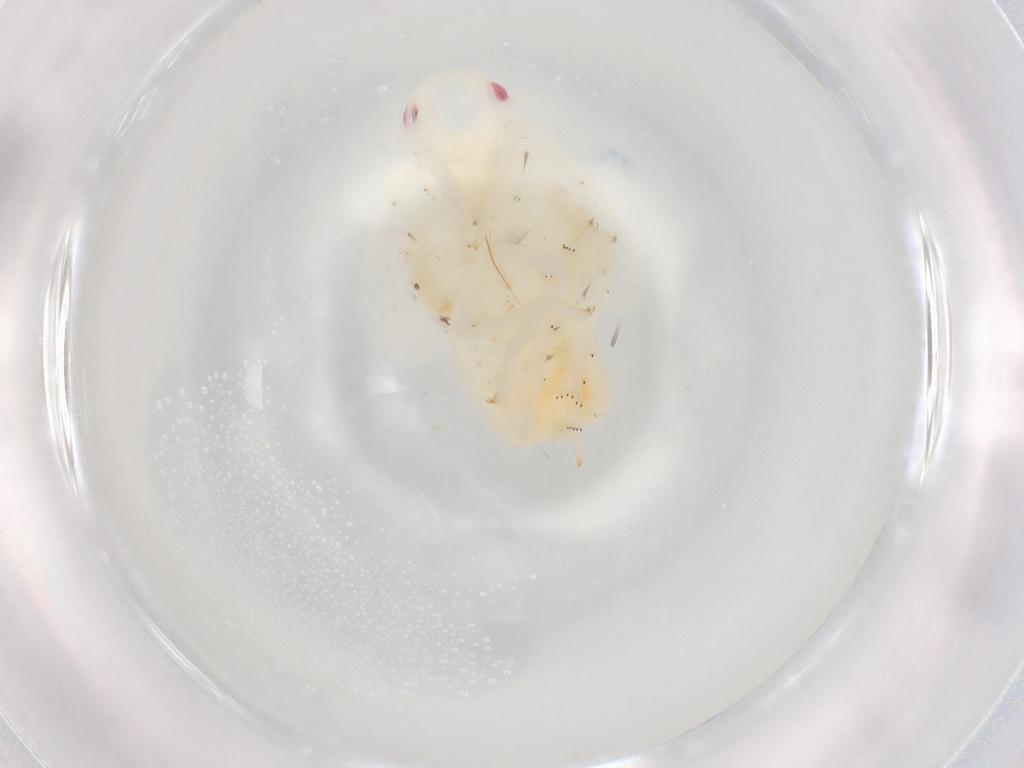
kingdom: Animalia
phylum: Arthropoda
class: Insecta
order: Hemiptera
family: Flatidae
